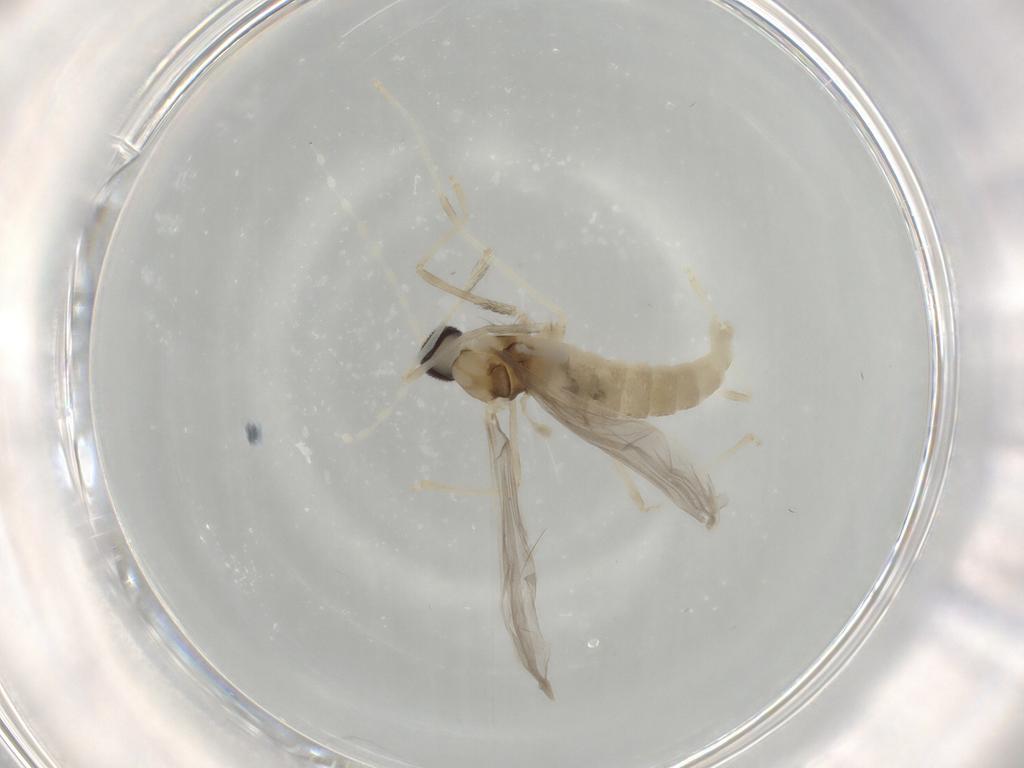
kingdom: Animalia
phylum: Arthropoda
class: Insecta
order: Diptera
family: Cecidomyiidae
